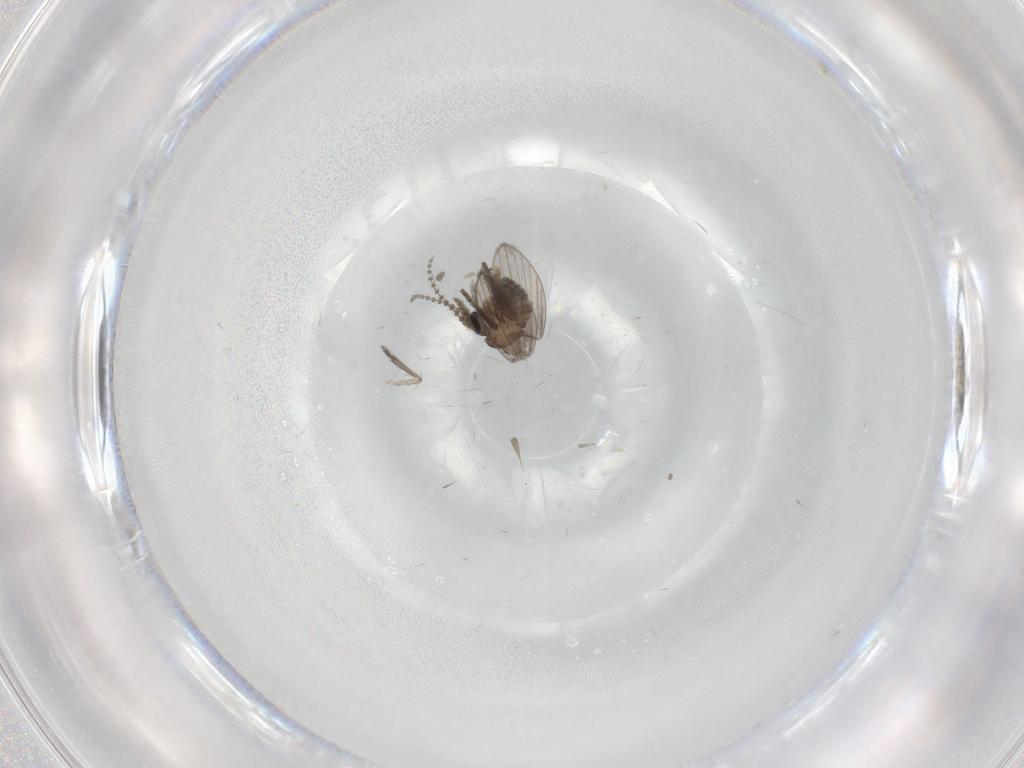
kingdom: Animalia
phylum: Arthropoda
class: Insecta
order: Diptera
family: Psychodidae
